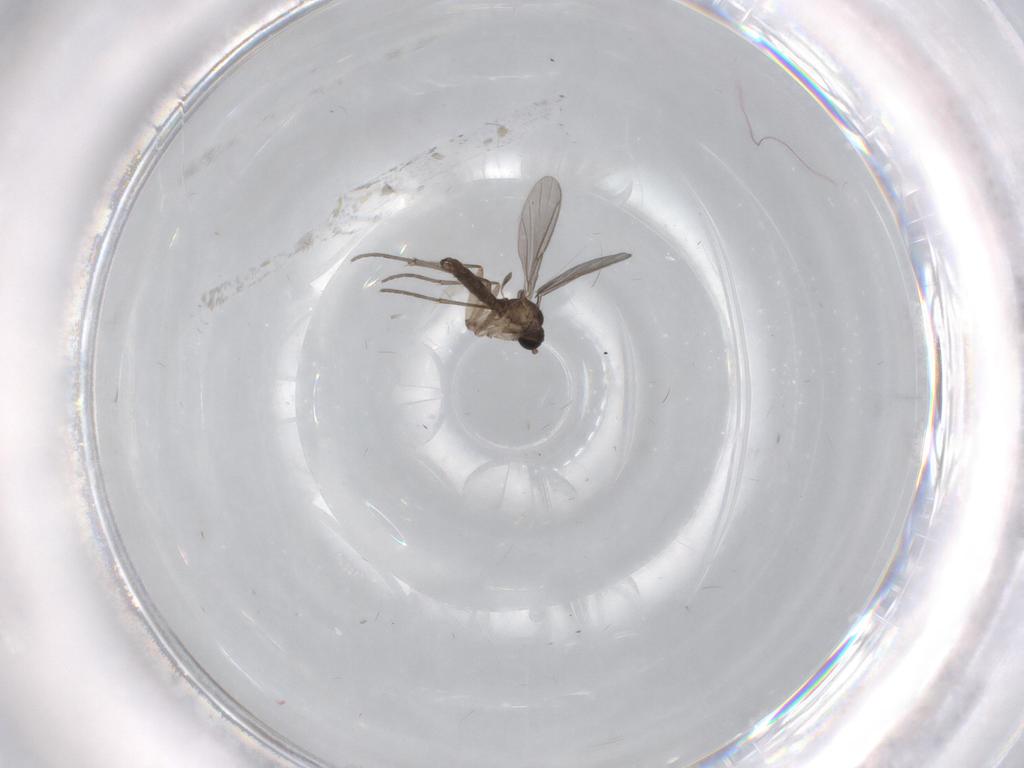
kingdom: Animalia
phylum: Arthropoda
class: Insecta
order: Diptera
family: Sciaridae
